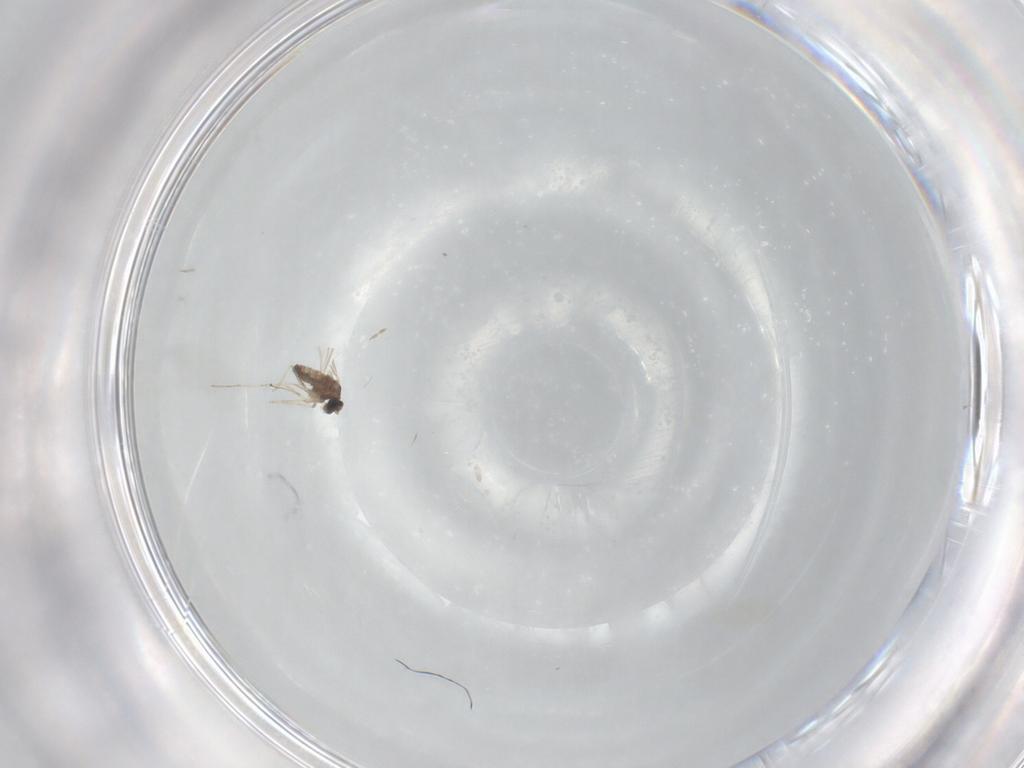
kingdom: Animalia
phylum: Arthropoda
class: Insecta
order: Diptera
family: Cecidomyiidae
